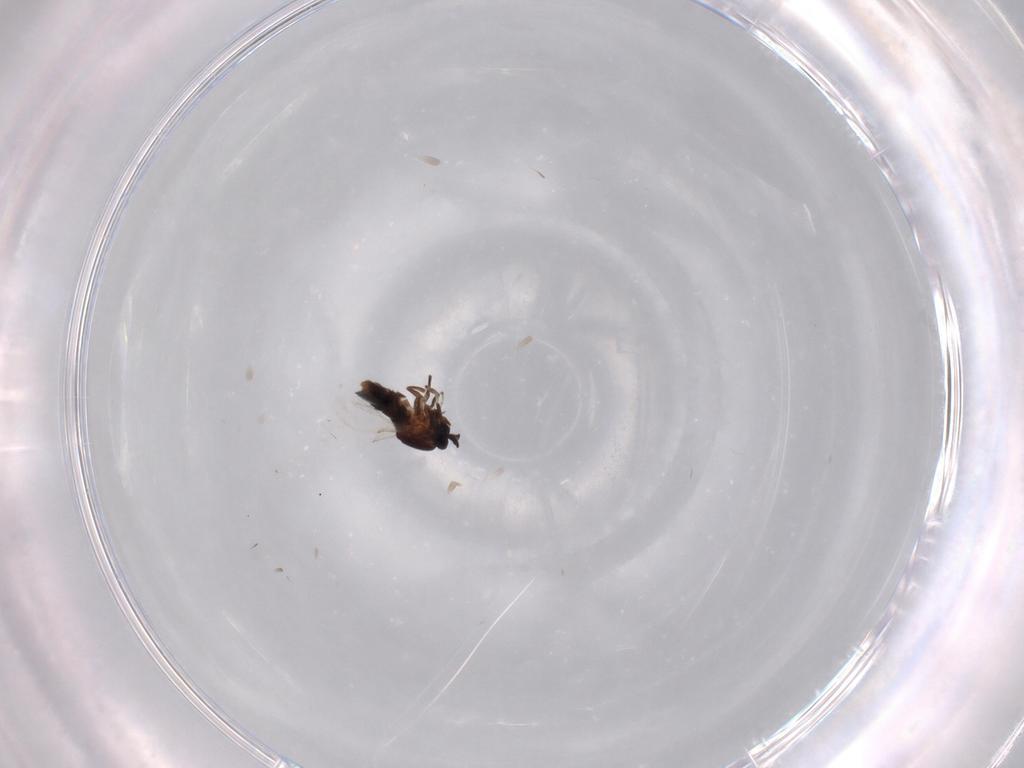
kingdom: Animalia
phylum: Arthropoda
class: Insecta
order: Diptera
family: Scatopsidae
